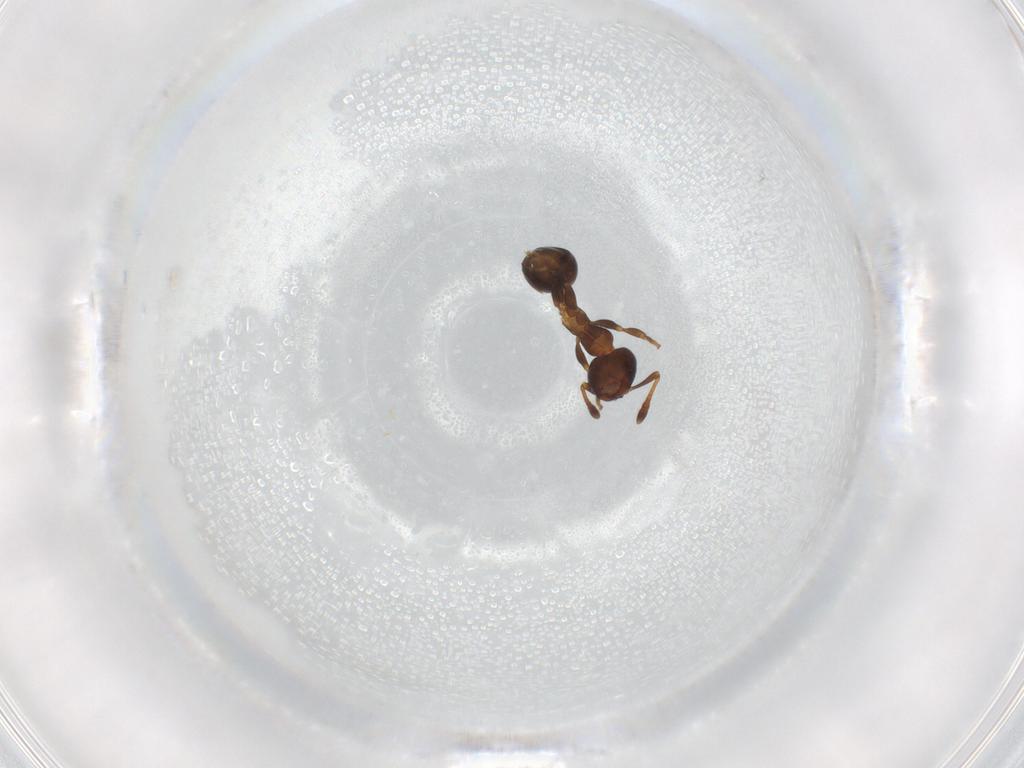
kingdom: Animalia
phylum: Arthropoda
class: Insecta
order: Hymenoptera
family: Formicidae
